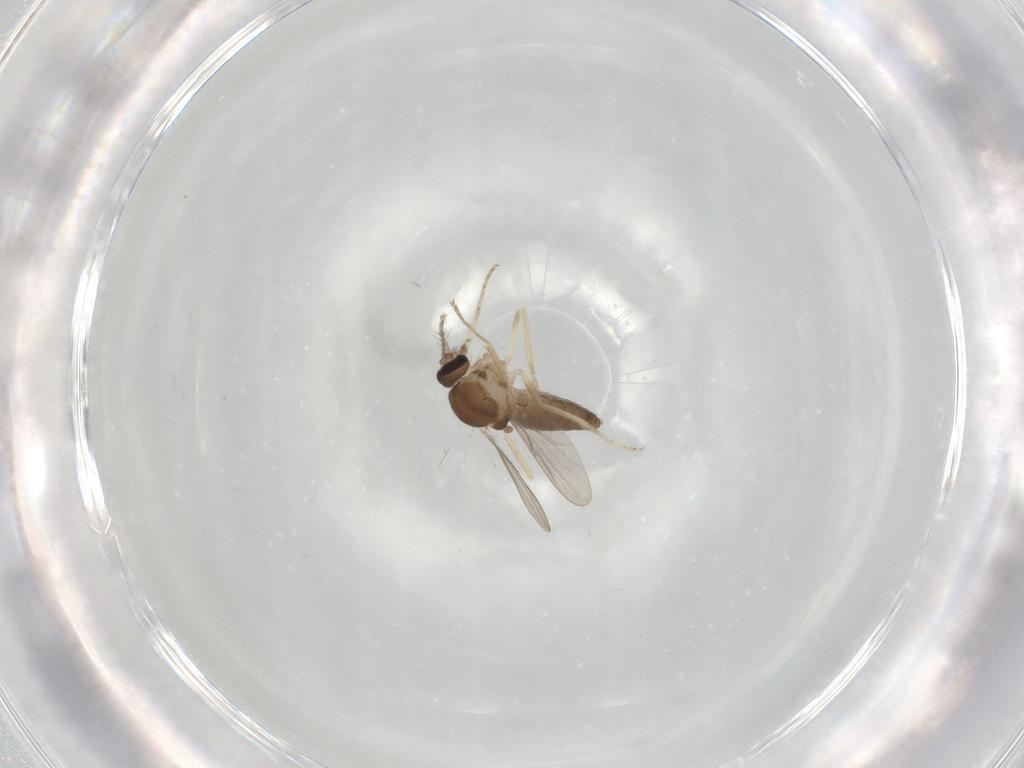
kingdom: Animalia
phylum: Arthropoda
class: Insecta
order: Diptera
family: Ceratopogonidae
